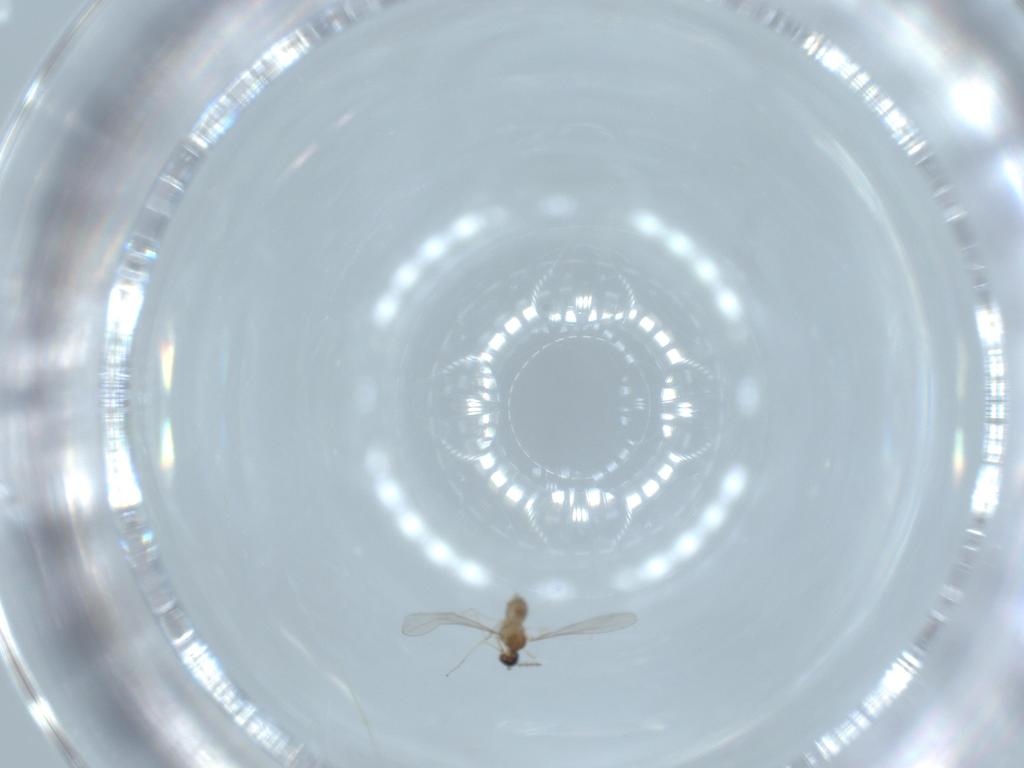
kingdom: Animalia
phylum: Arthropoda
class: Insecta
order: Diptera
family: Cecidomyiidae
